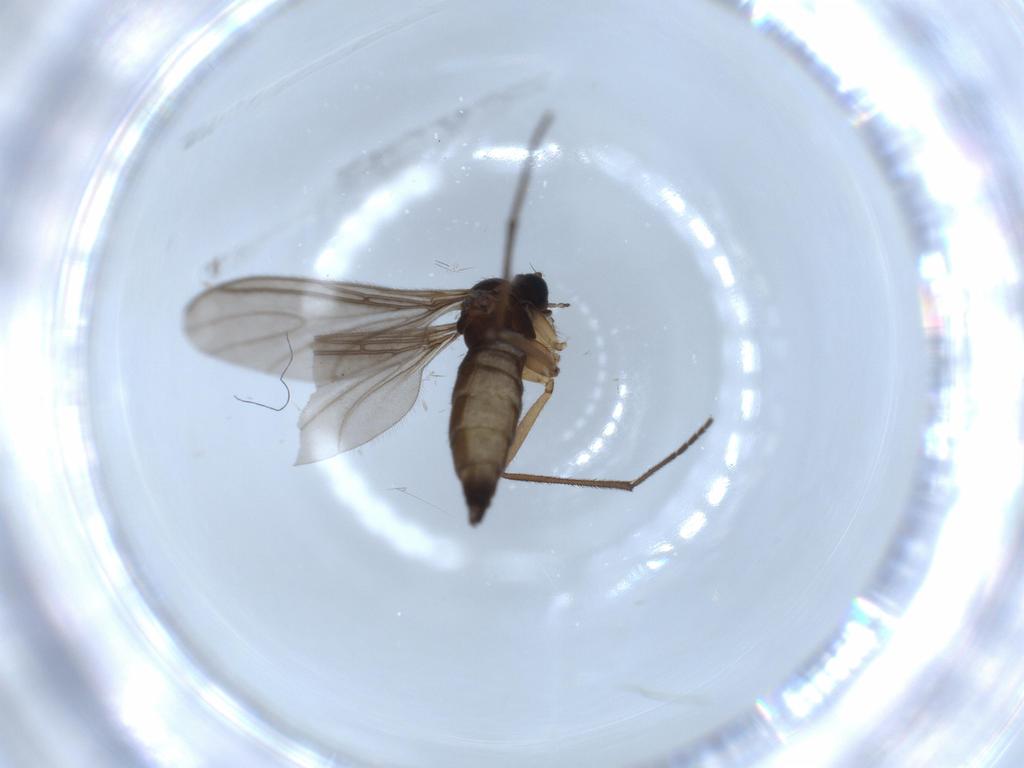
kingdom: Animalia
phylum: Arthropoda
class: Insecta
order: Diptera
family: Sciaridae
